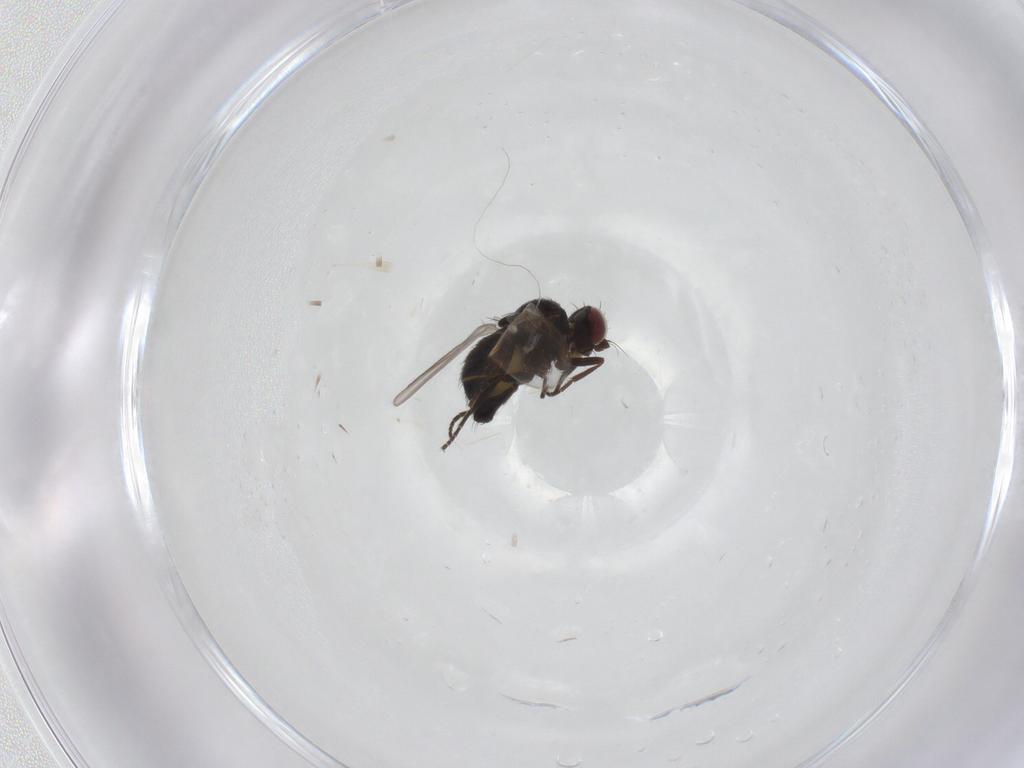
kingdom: Animalia
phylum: Arthropoda
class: Insecta
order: Diptera
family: Agromyzidae
